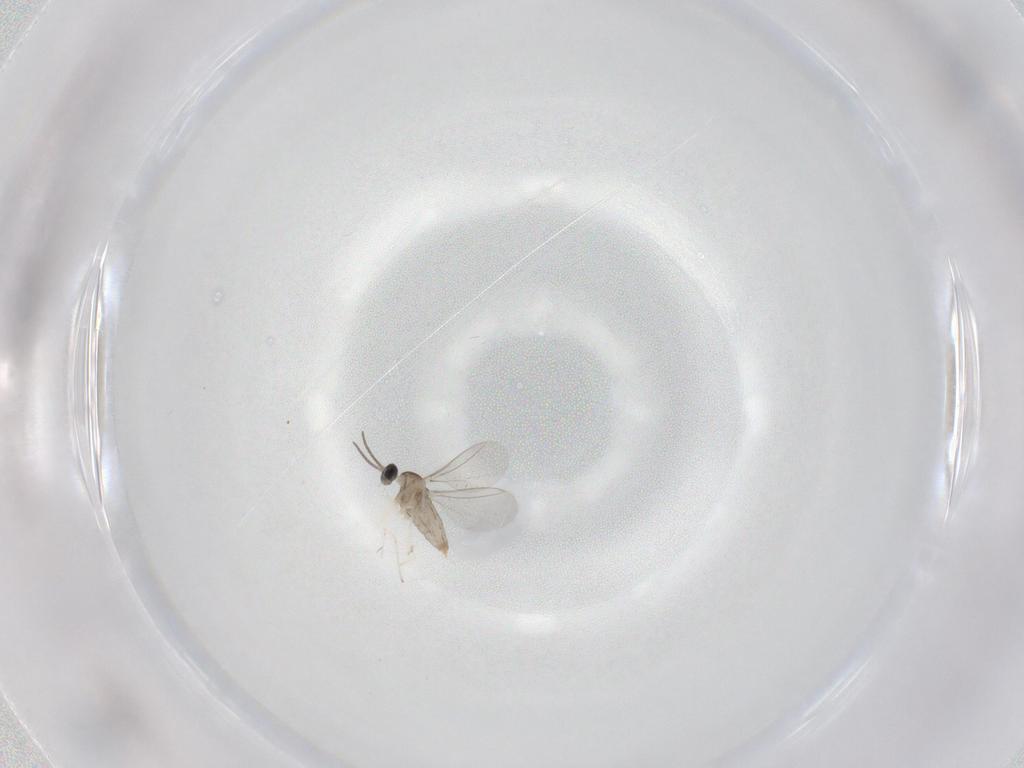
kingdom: Animalia
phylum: Arthropoda
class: Insecta
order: Diptera
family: Cecidomyiidae
